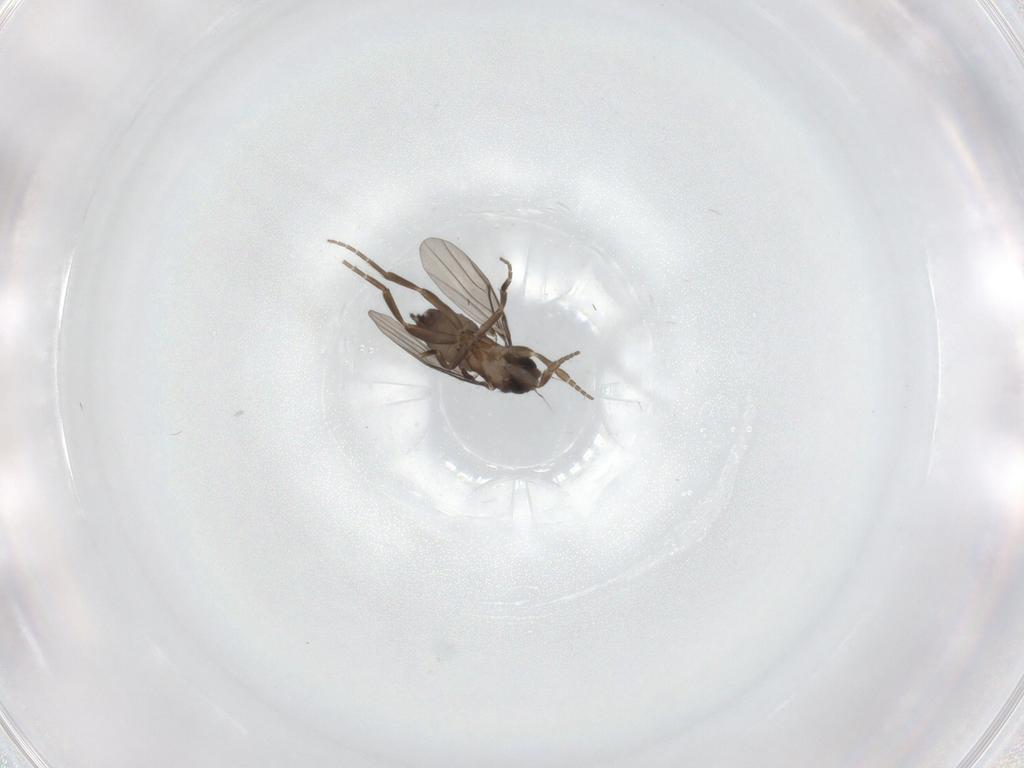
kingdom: Animalia
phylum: Arthropoda
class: Insecta
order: Diptera
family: Phoridae
